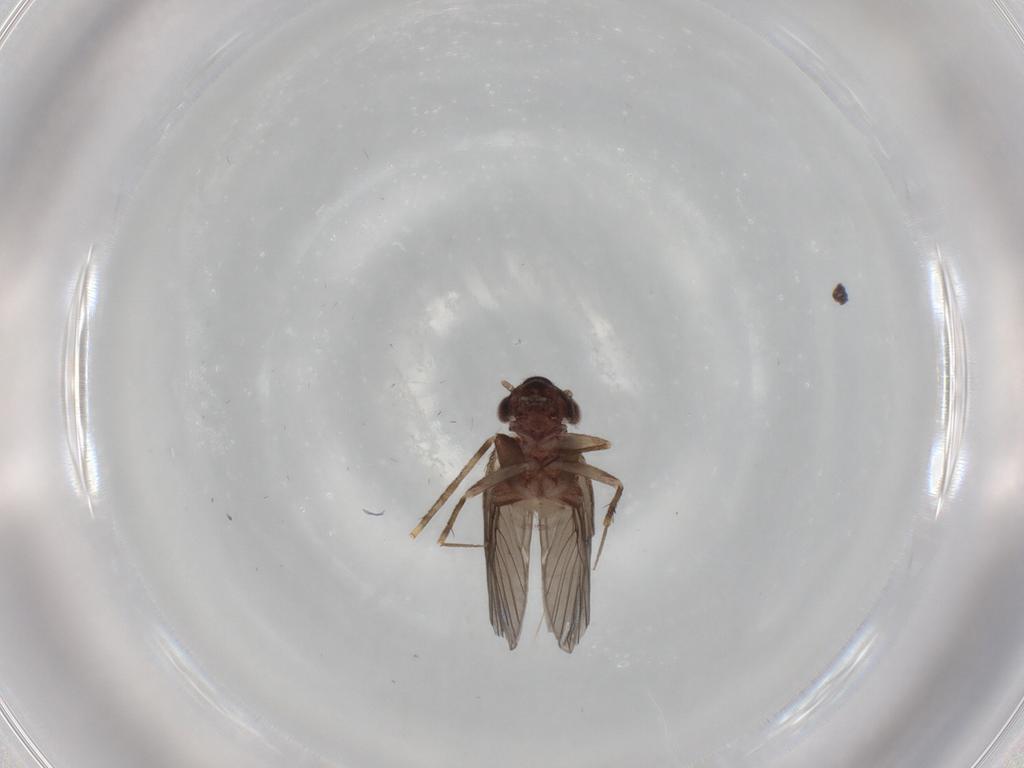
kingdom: Animalia
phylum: Arthropoda
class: Insecta
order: Psocodea
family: Lepidopsocidae
